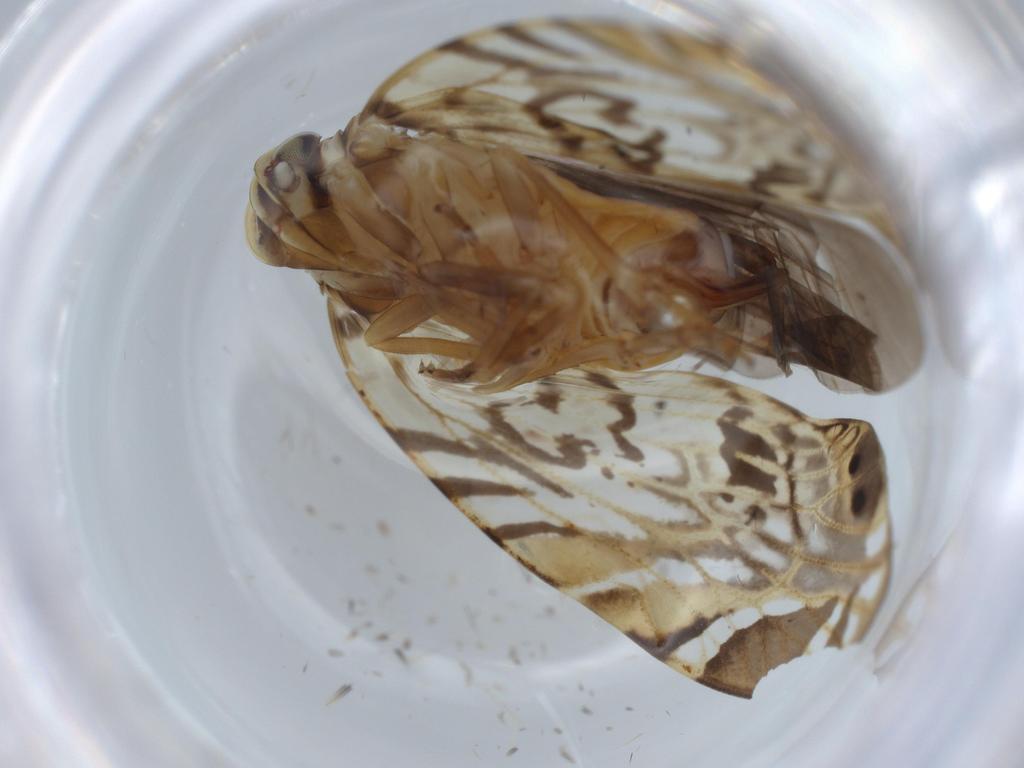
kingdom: Animalia
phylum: Arthropoda
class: Insecta
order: Hemiptera
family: Cixiidae
